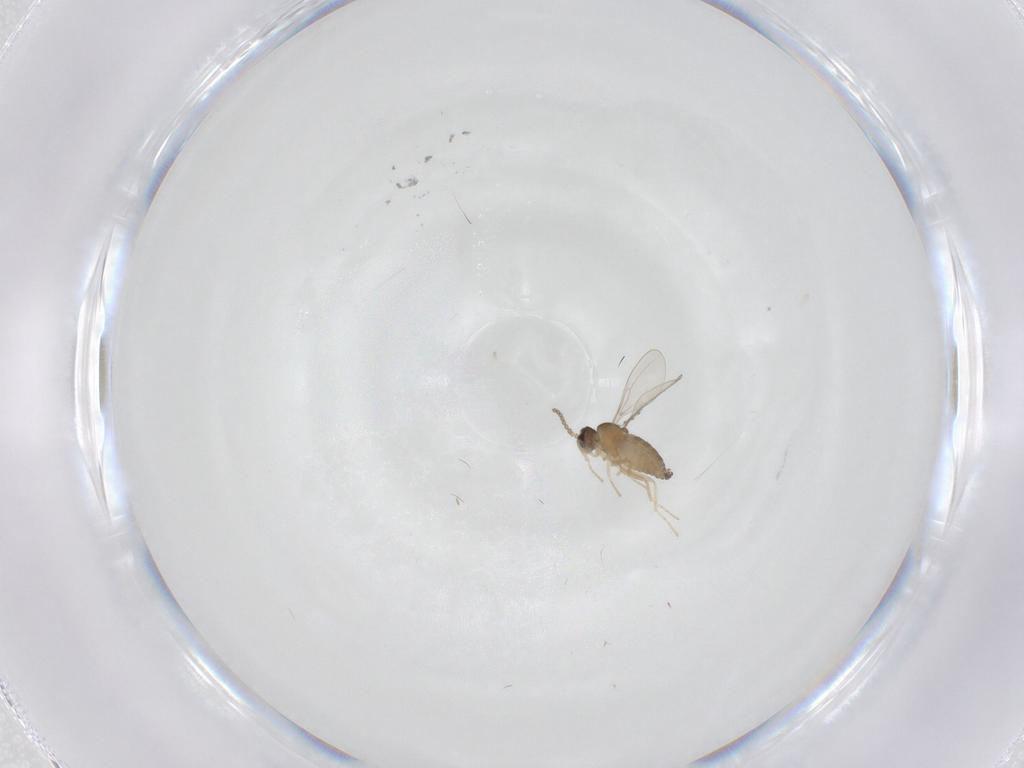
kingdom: Animalia
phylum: Arthropoda
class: Insecta
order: Diptera
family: Cecidomyiidae
